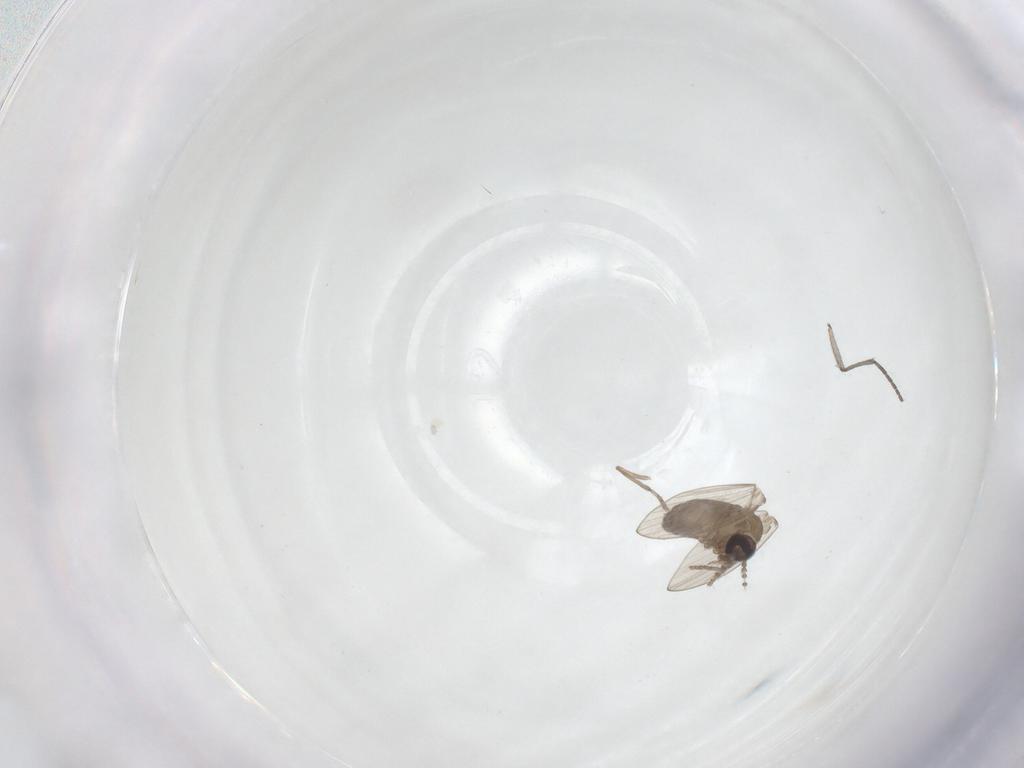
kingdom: Animalia
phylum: Arthropoda
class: Insecta
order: Diptera
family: Sciaridae
